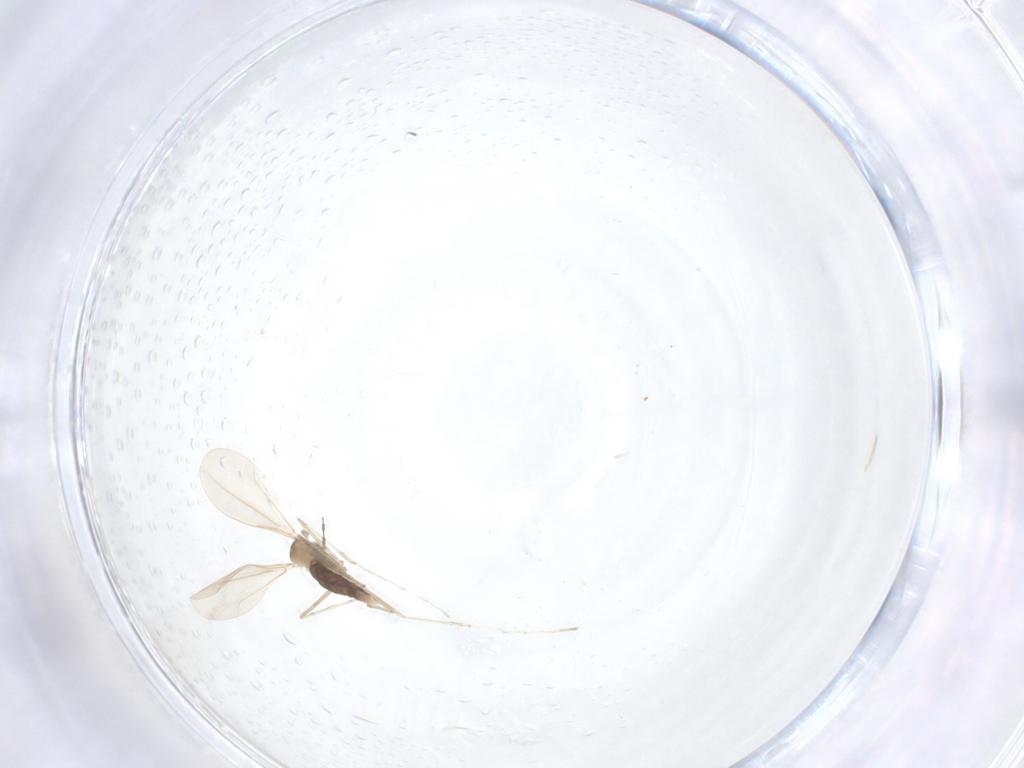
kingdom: Animalia
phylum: Arthropoda
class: Insecta
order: Diptera
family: Cecidomyiidae
